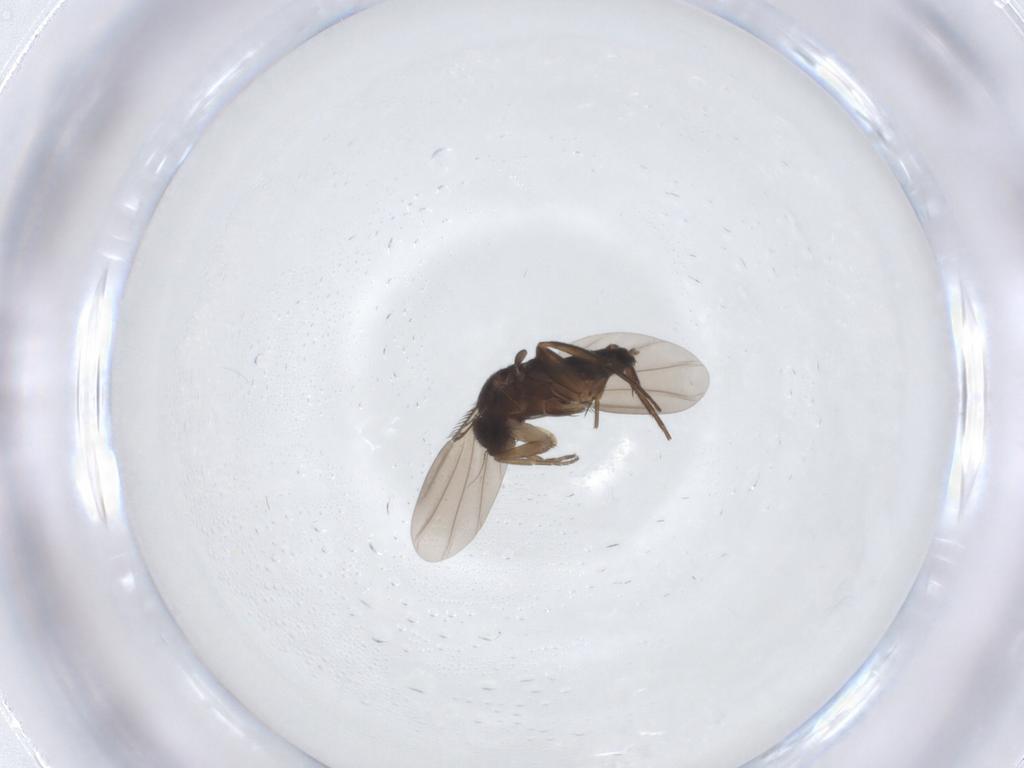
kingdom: Animalia
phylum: Arthropoda
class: Insecta
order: Diptera
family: Phoridae
